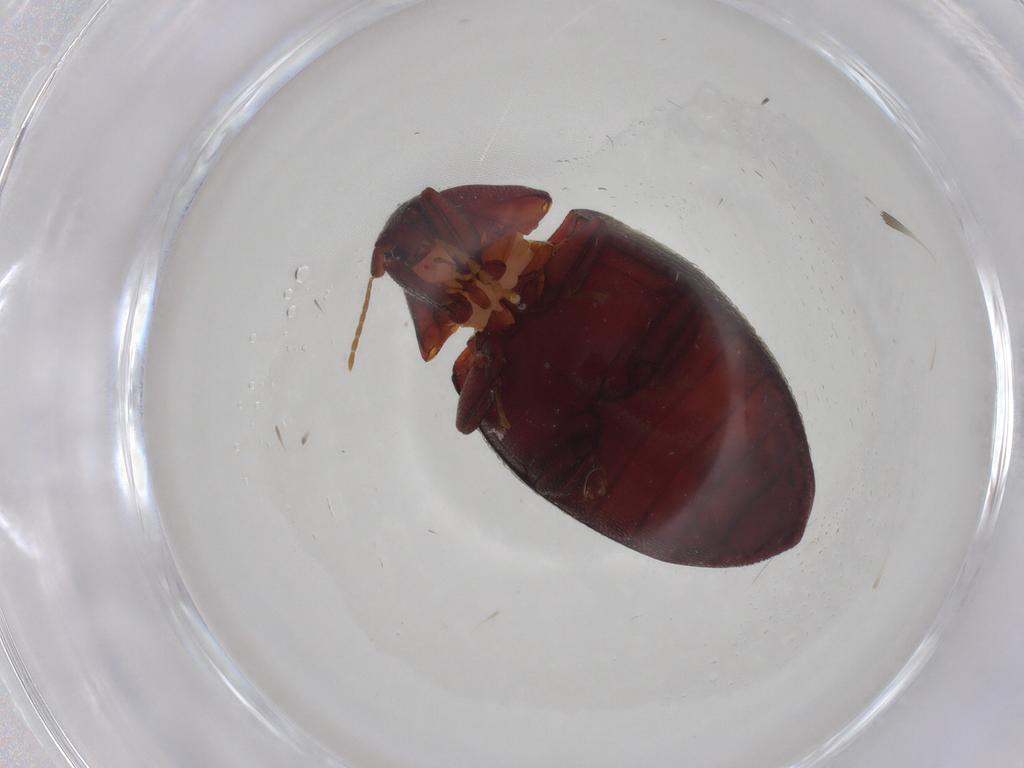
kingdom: Animalia
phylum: Arthropoda
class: Insecta
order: Coleoptera
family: Chelonariidae
